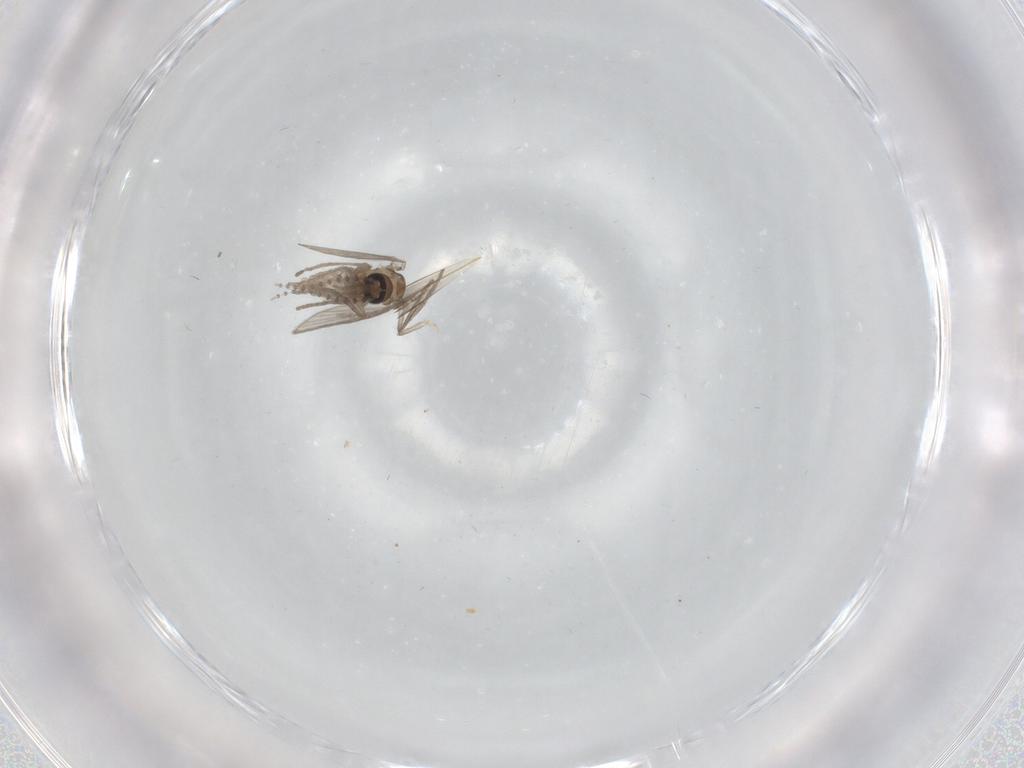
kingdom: Animalia
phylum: Arthropoda
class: Insecta
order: Diptera
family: Psychodidae
